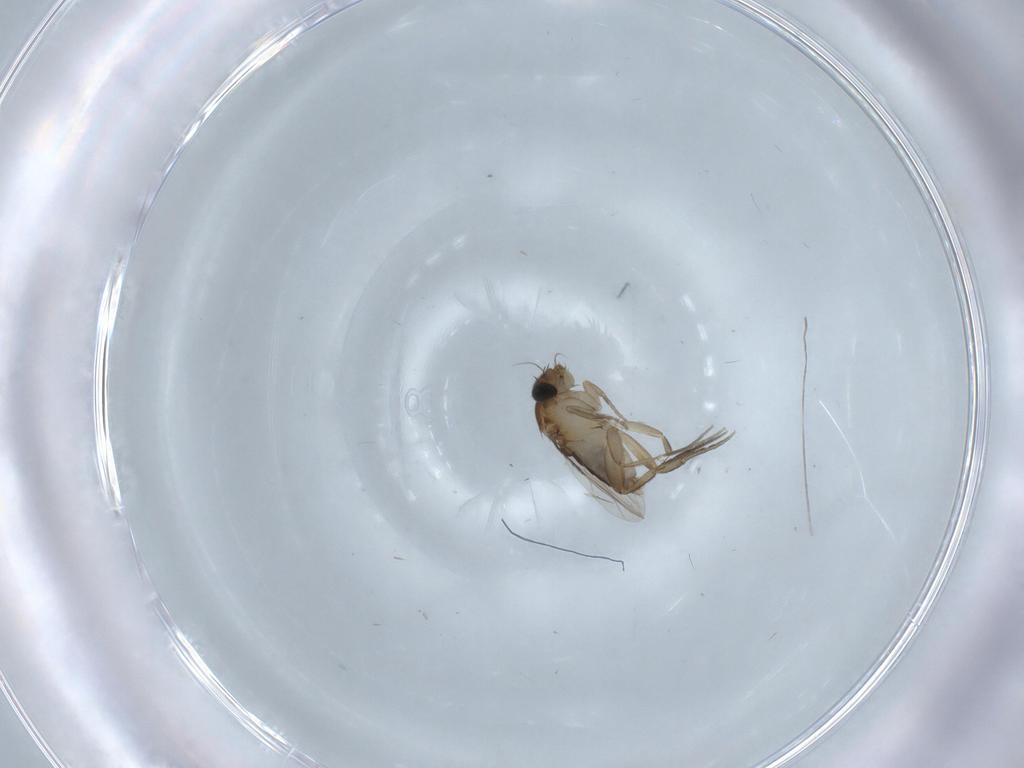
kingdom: Animalia
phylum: Arthropoda
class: Insecta
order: Diptera
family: Phoridae
